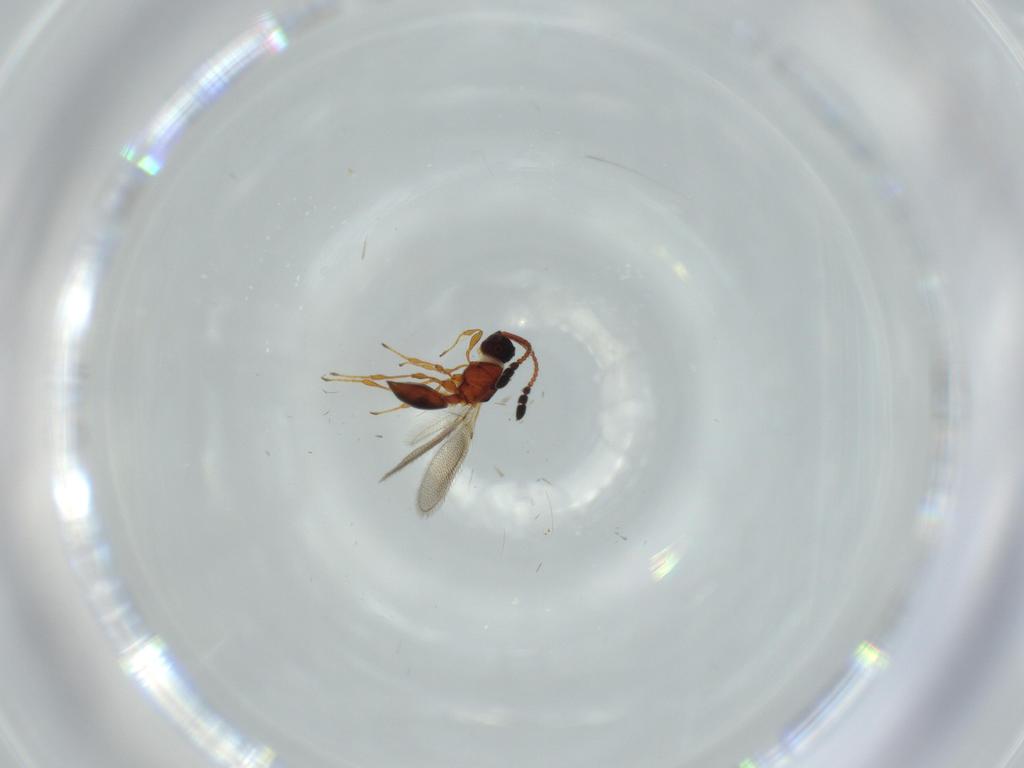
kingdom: Animalia
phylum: Arthropoda
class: Insecta
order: Hymenoptera
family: Diapriidae
